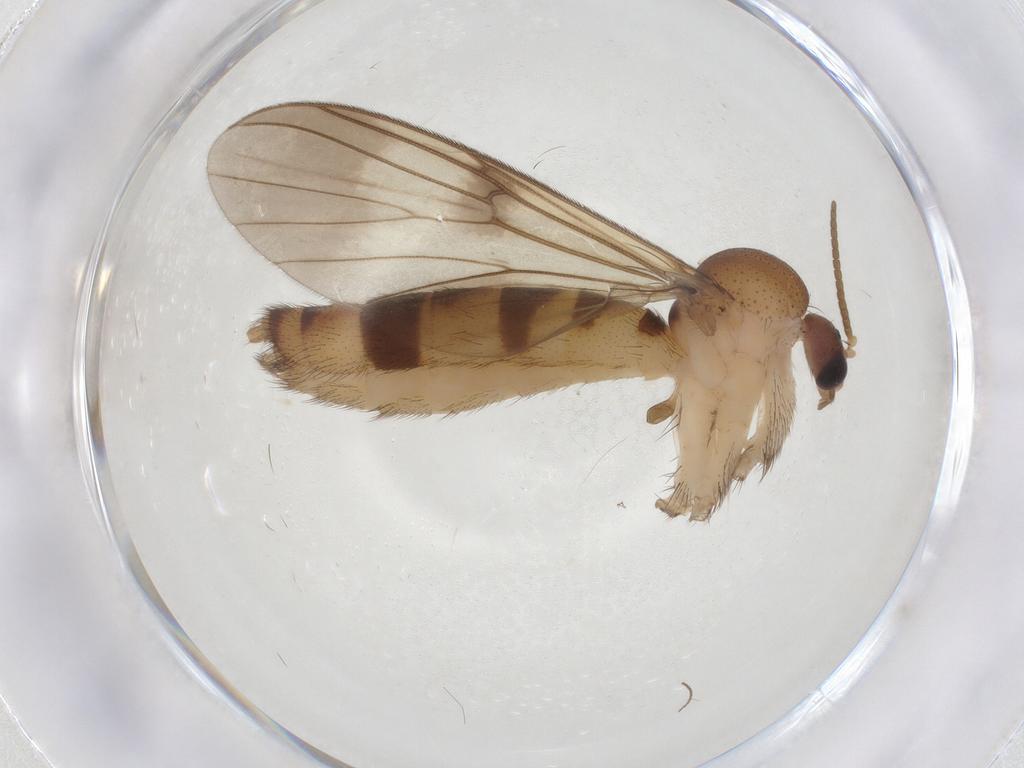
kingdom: Animalia
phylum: Arthropoda
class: Insecta
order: Diptera
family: Mycetophilidae
